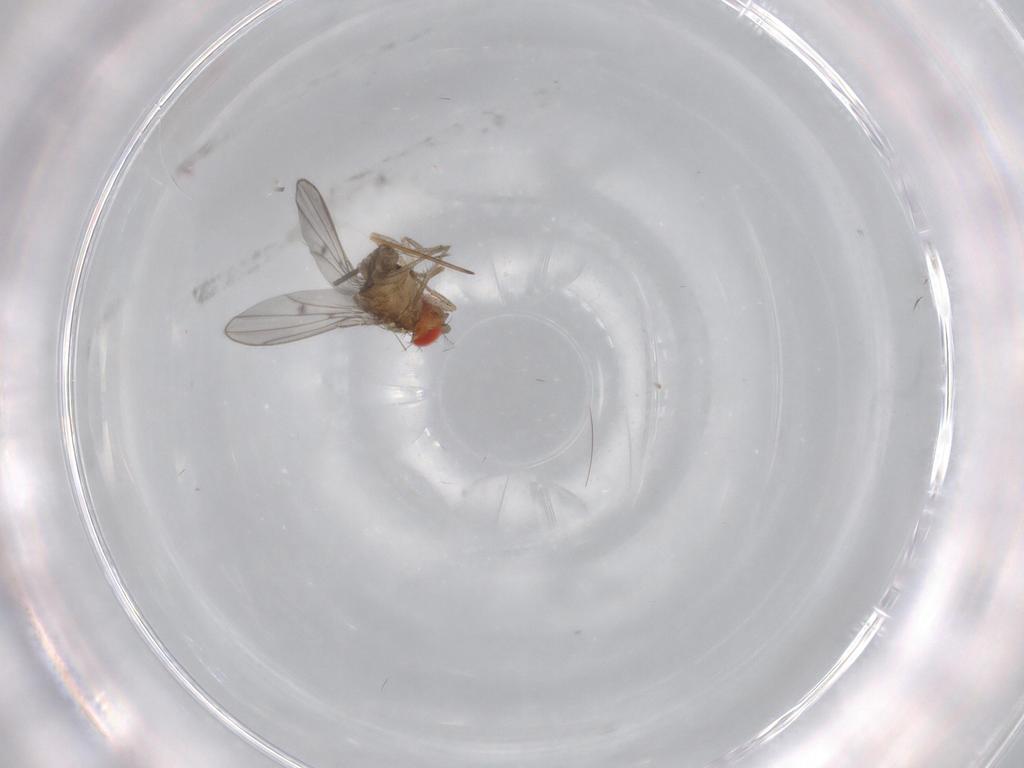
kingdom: Animalia
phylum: Arthropoda
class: Insecta
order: Diptera
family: Drosophilidae
